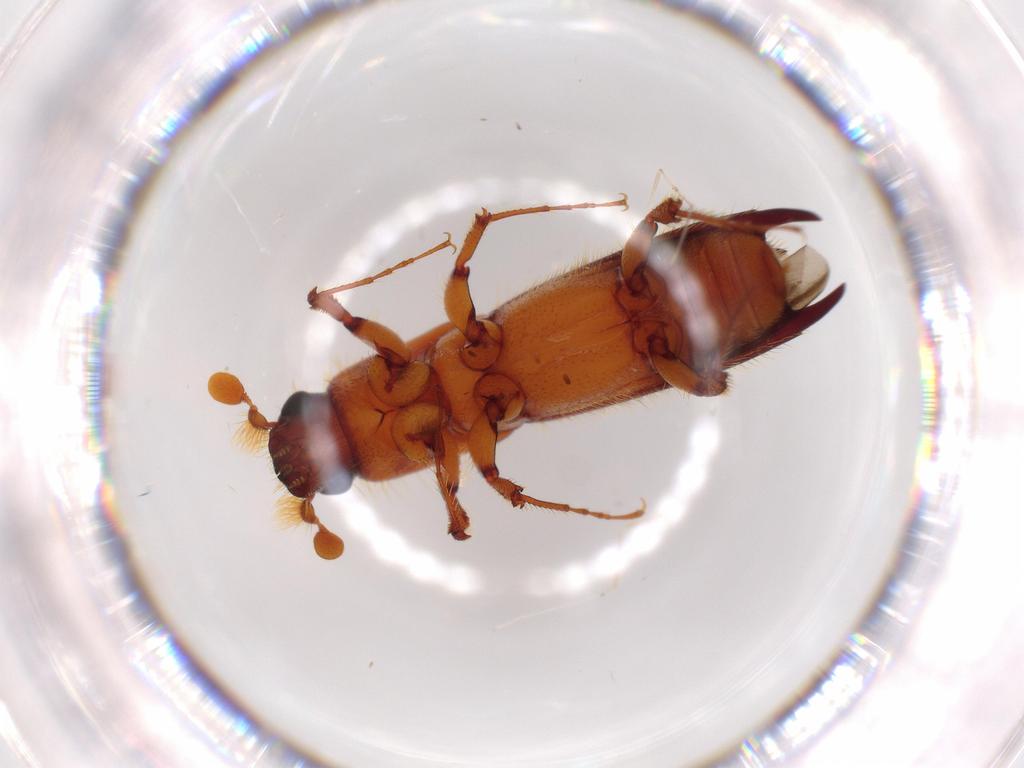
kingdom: Animalia
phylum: Arthropoda
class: Insecta
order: Coleoptera
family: Curculionidae
